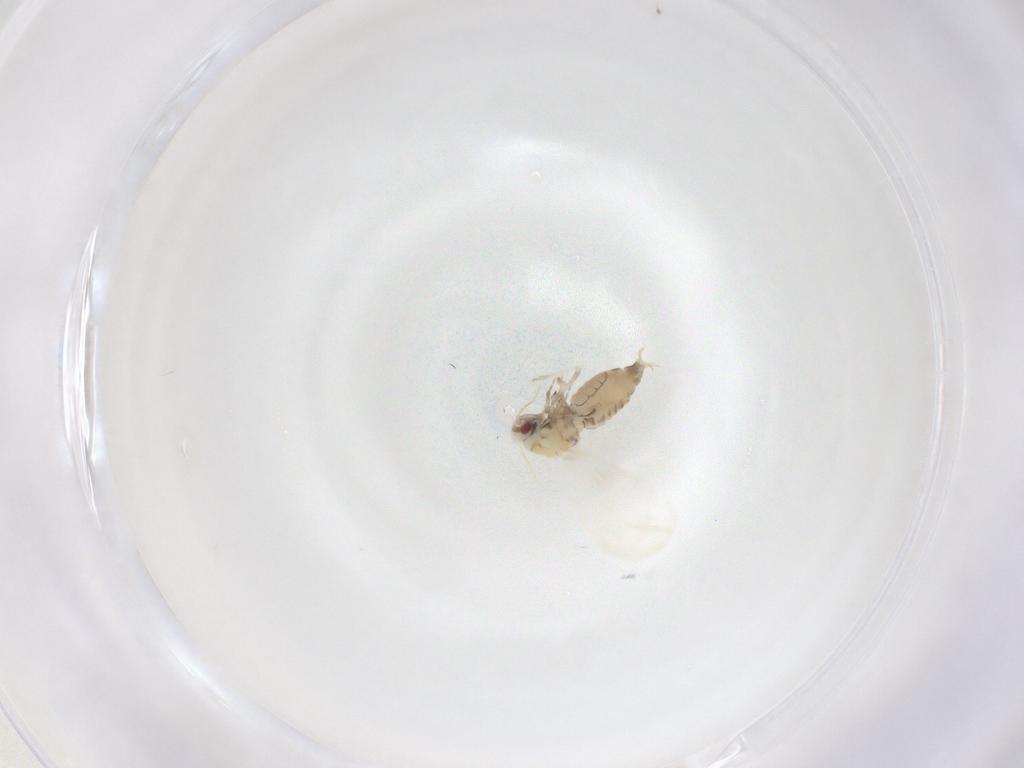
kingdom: Animalia
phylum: Arthropoda
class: Insecta
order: Hemiptera
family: Aleyrodidae
